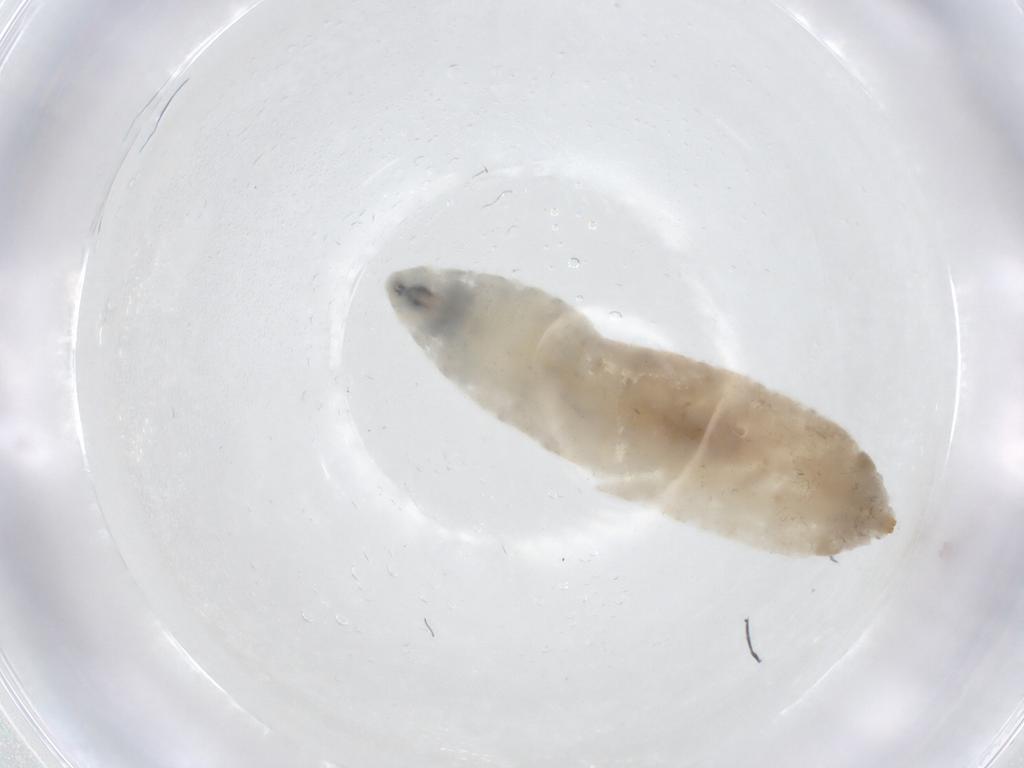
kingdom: Animalia
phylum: Arthropoda
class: Insecta
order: Diptera
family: Drosophilidae
